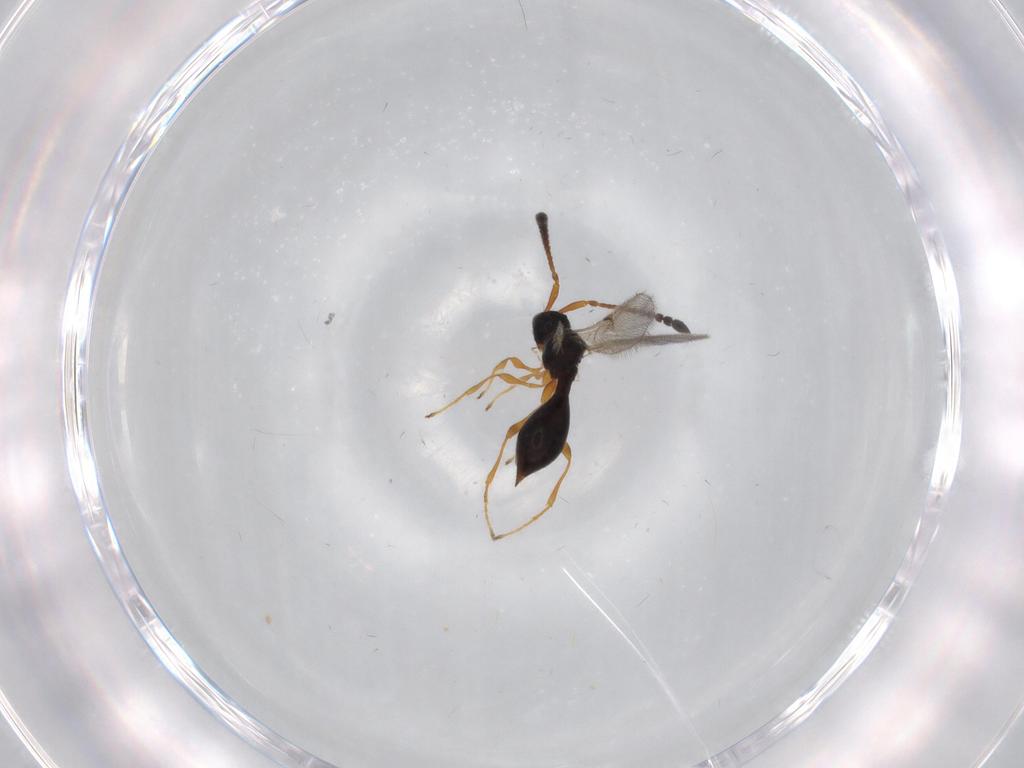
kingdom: Animalia
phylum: Arthropoda
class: Insecta
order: Hymenoptera
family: Diapriidae
